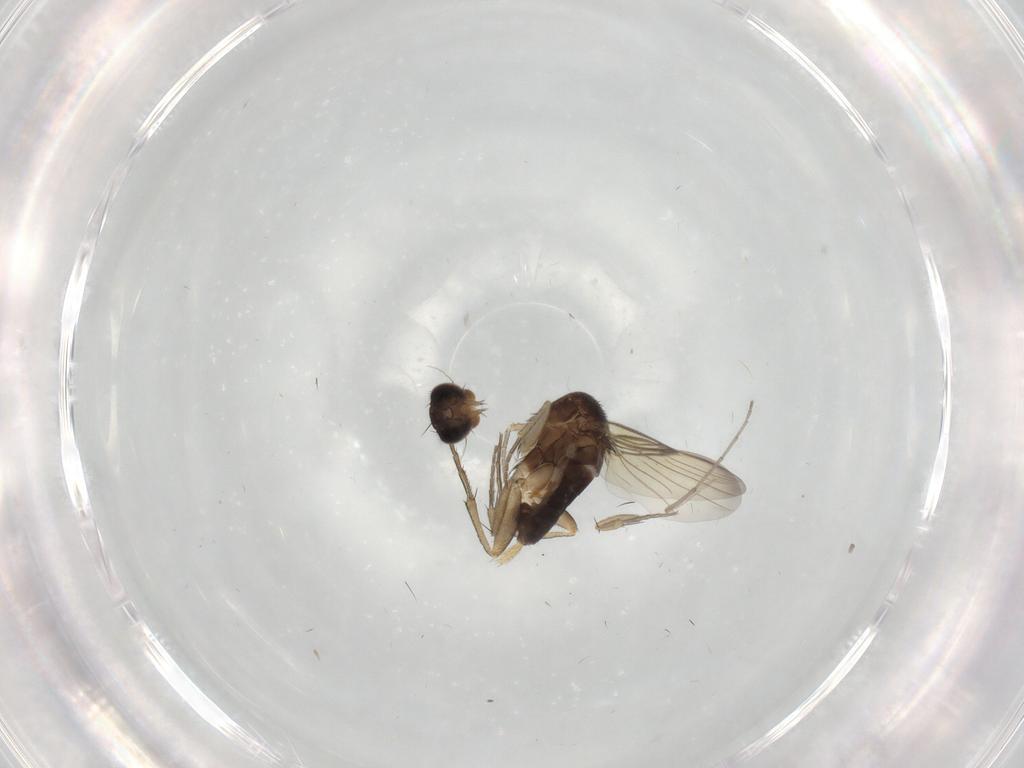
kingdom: Animalia
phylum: Arthropoda
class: Insecta
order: Diptera
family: Phoridae
